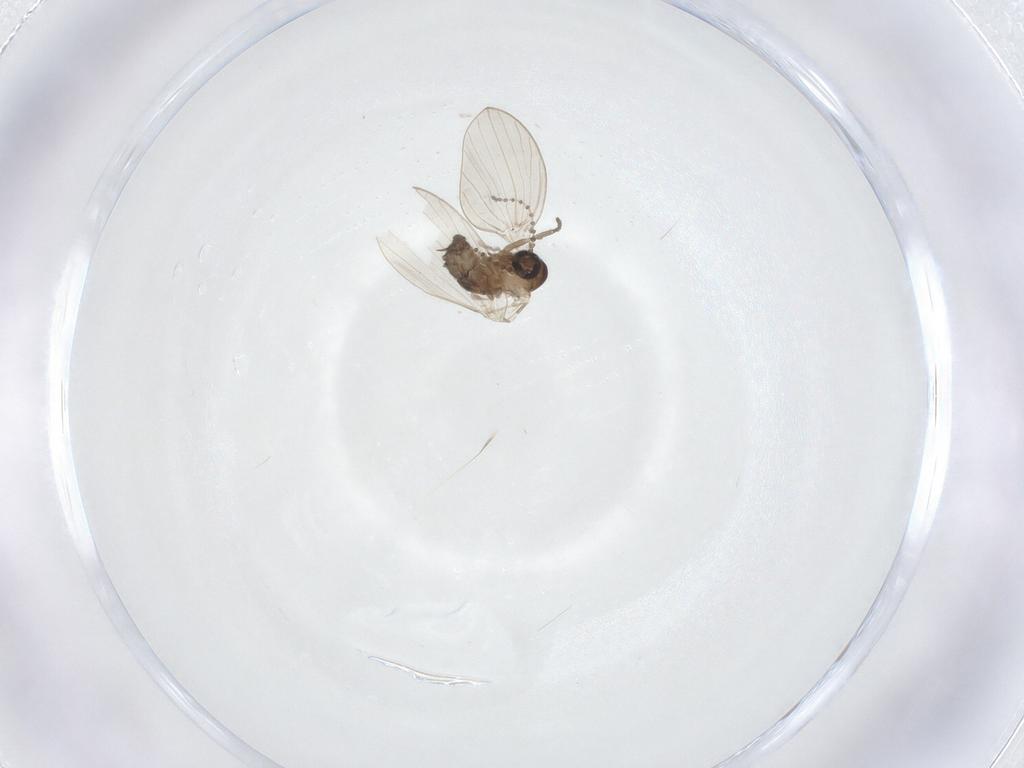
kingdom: Animalia
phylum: Arthropoda
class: Insecta
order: Diptera
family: Psychodidae
